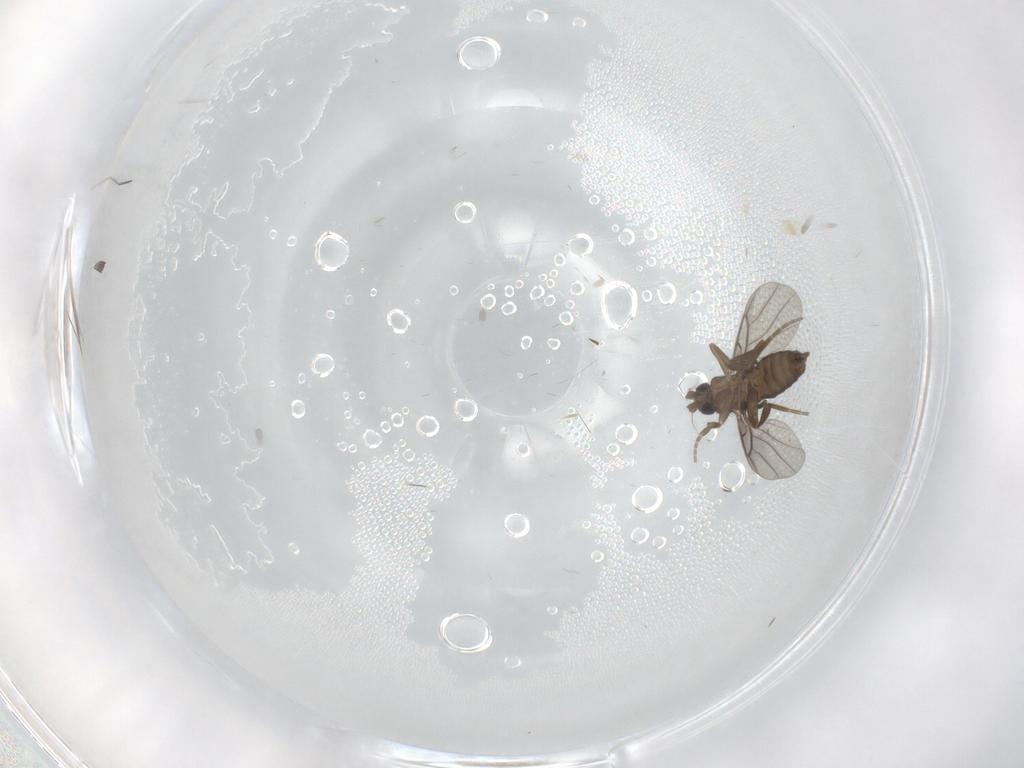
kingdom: Animalia
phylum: Arthropoda
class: Insecta
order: Diptera
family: Phoridae
